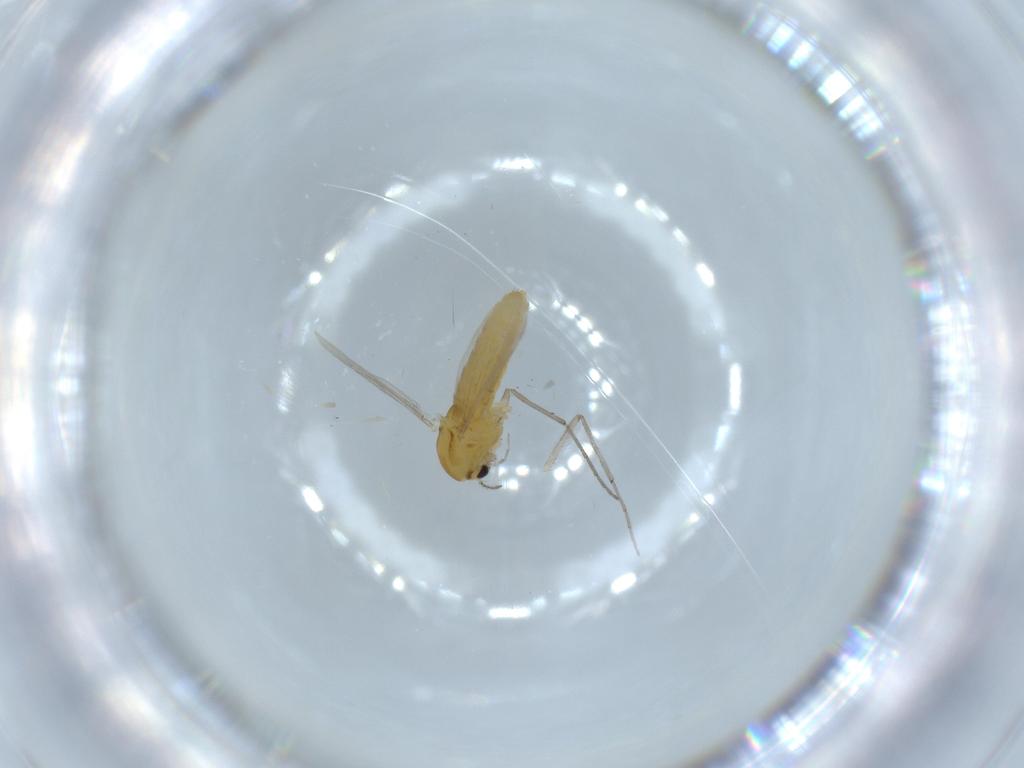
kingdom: Animalia
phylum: Arthropoda
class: Insecta
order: Diptera
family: Chironomidae
